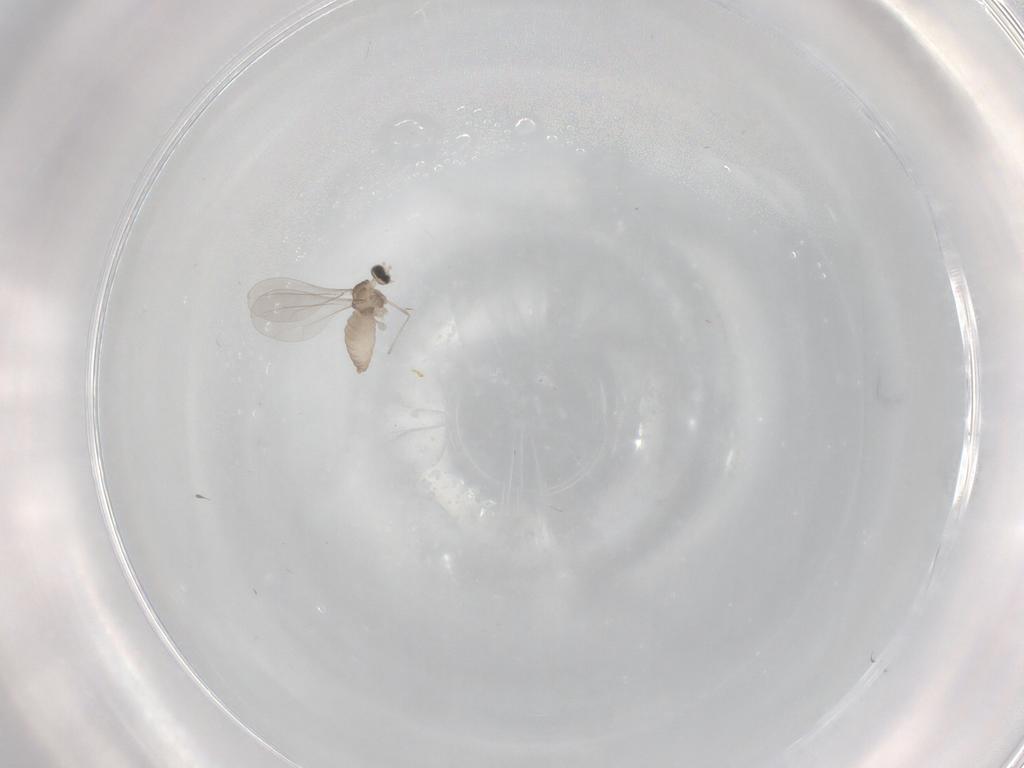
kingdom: Animalia
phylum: Arthropoda
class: Insecta
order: Diptera
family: Cecidomyiidae
